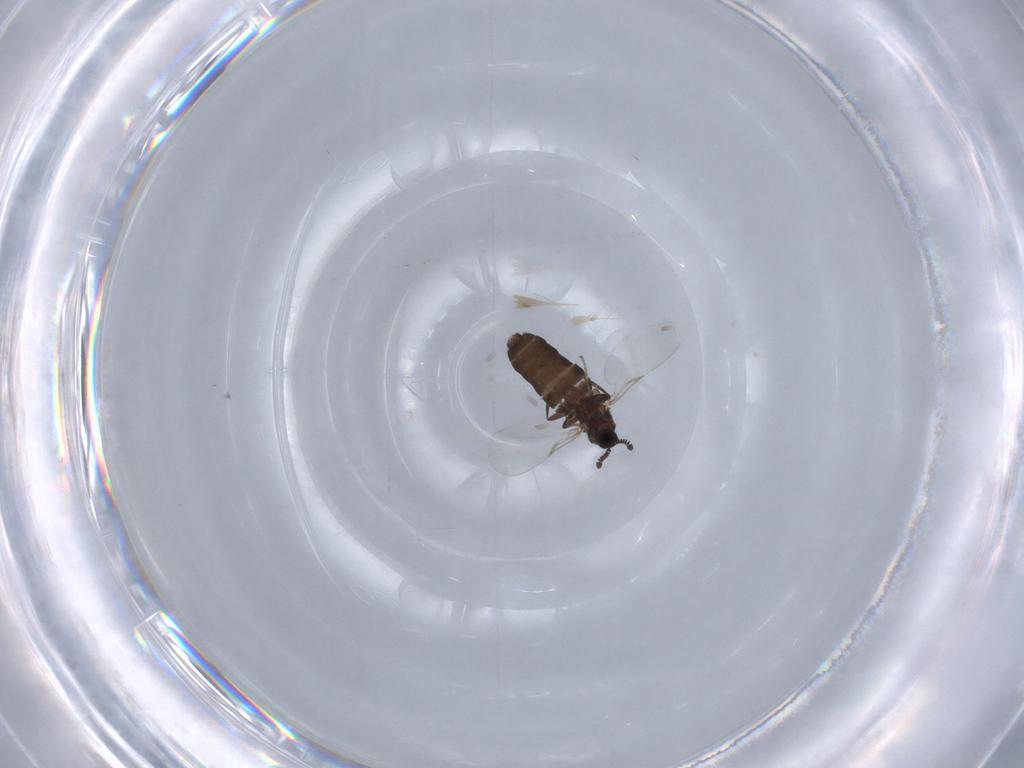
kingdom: Animalia
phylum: Arthropoda
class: Insecta
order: Diptera
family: Scatopsidae
